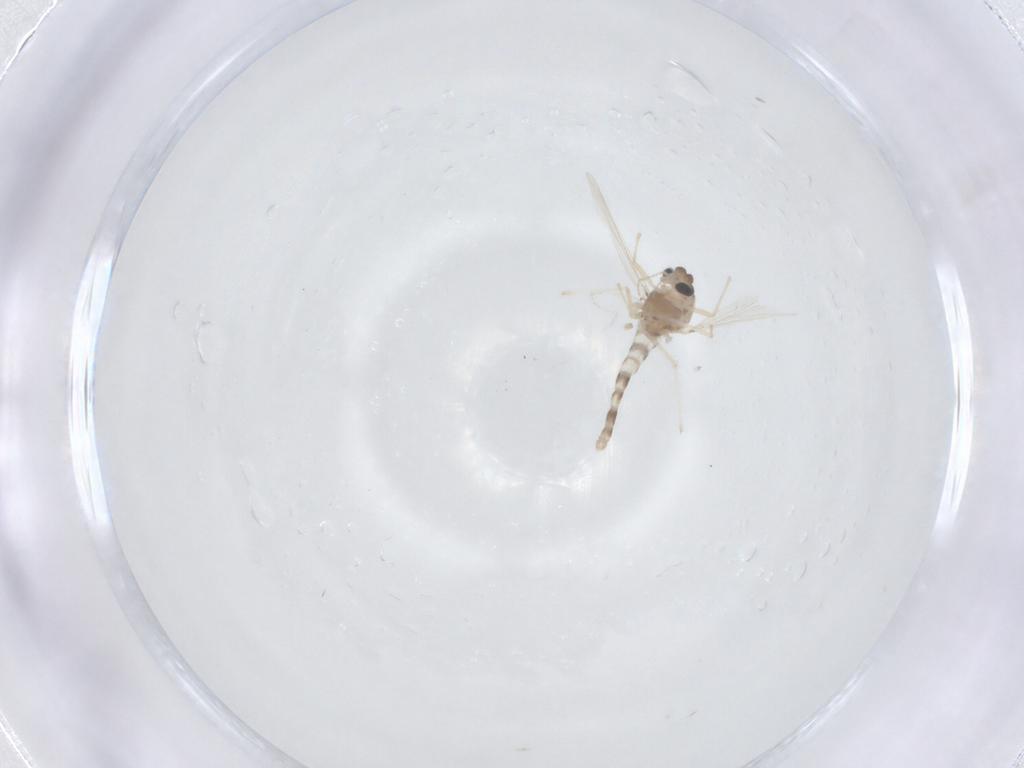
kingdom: Animalia
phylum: Arthropoda
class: Insecta
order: Diptera
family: Chironomidae
